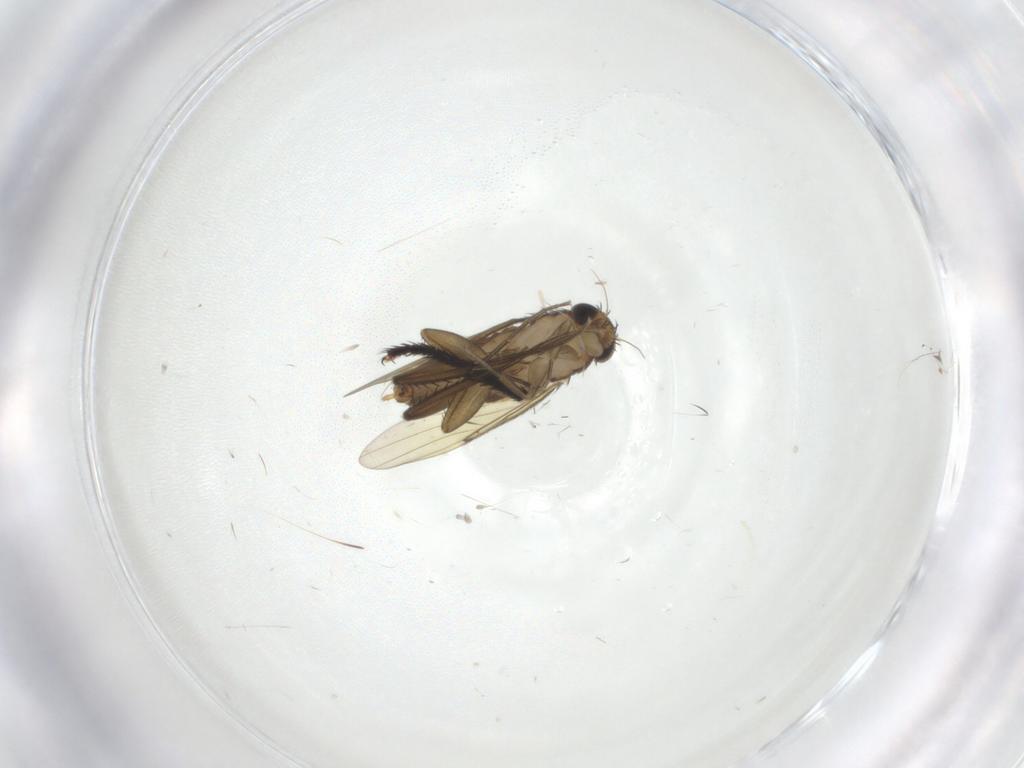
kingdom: Animalia
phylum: Arthropoda
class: Insecta
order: Diptera
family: Phoridae
